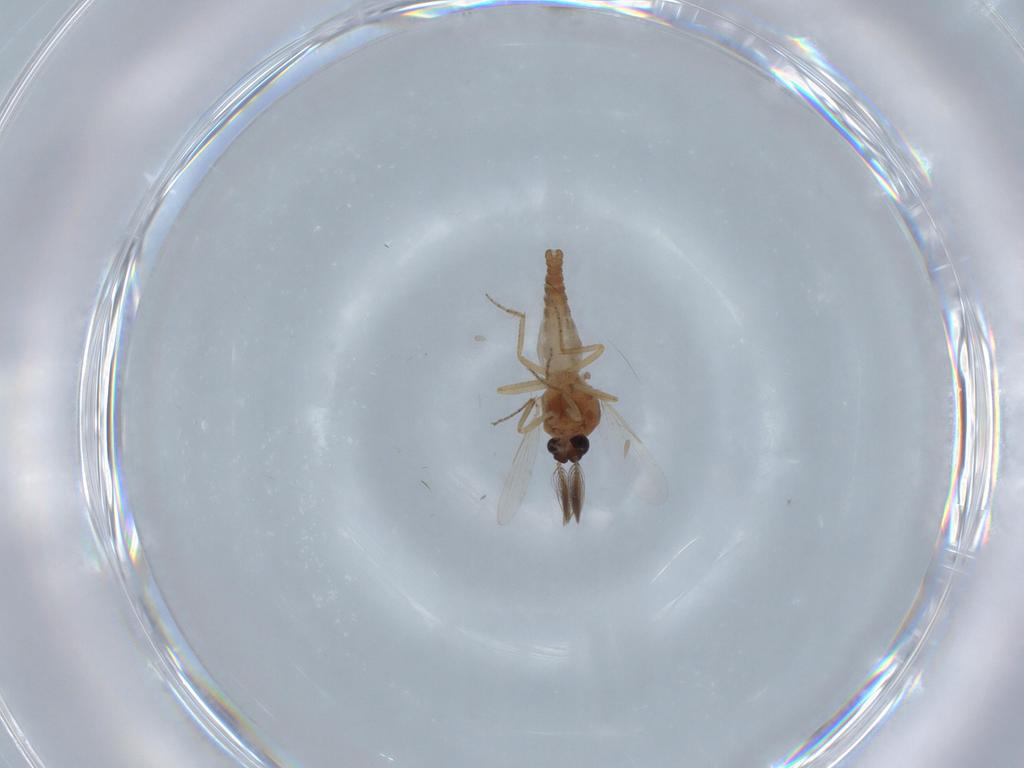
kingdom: Animalia
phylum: Arthropoda
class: Insecta
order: Diptera
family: Ceratopogonidae
